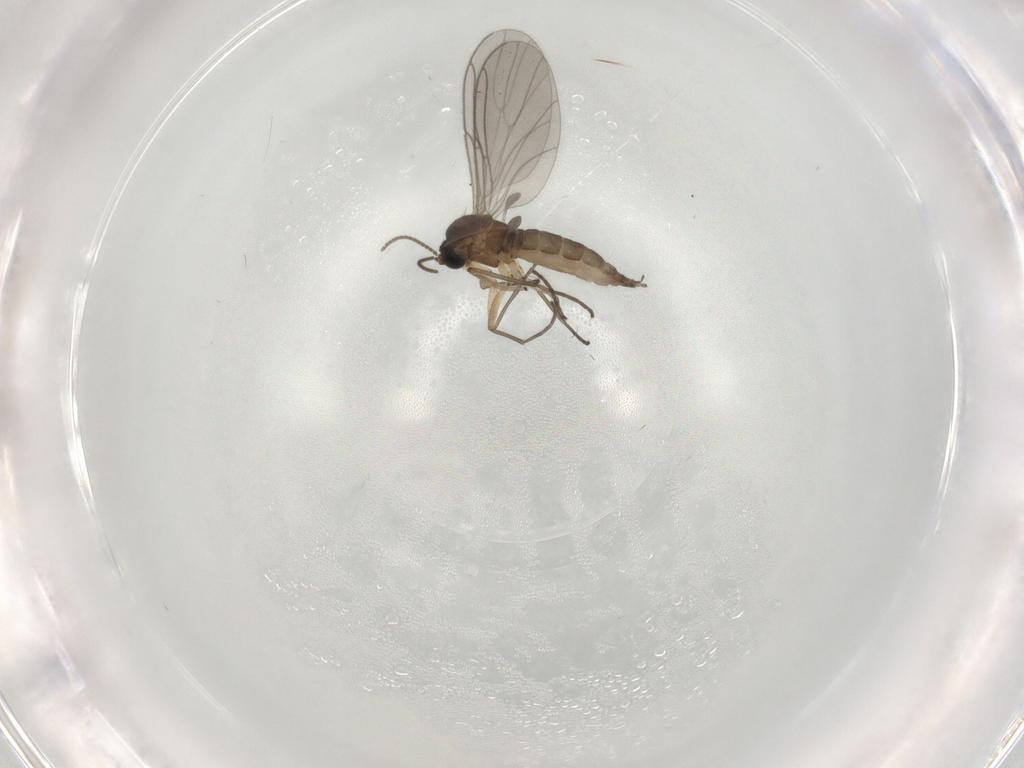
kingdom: Animalia
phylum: Arthropoda
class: Insecta
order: Diptera
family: Sciaridae
